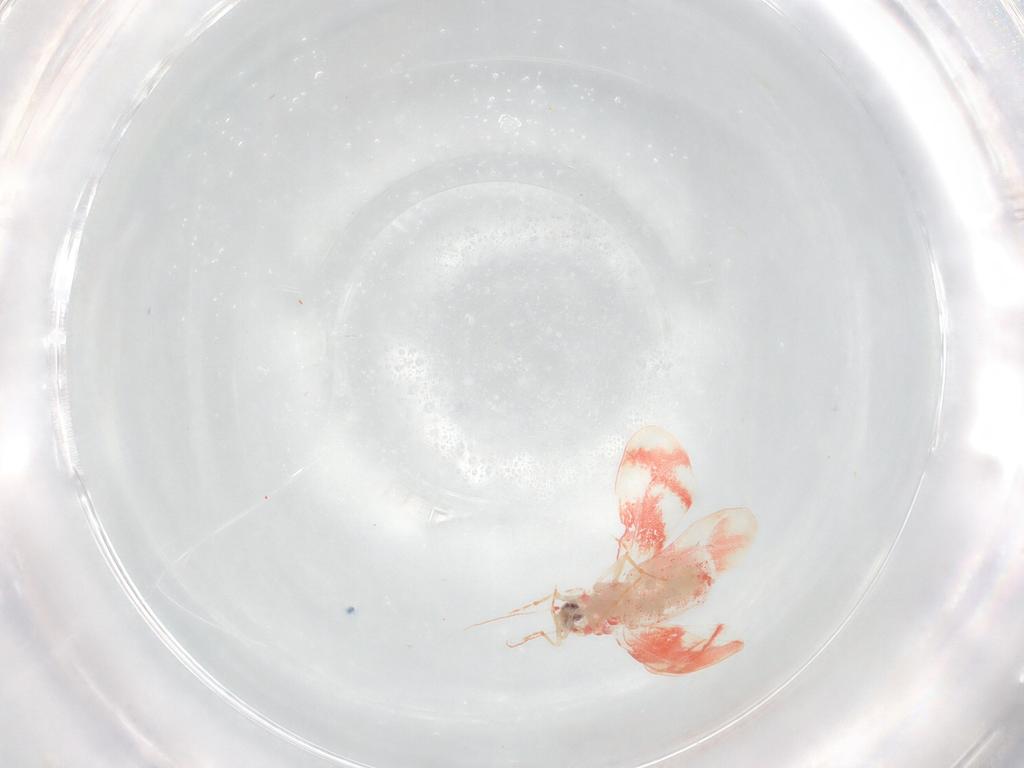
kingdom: Animalia
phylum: Arthropoda
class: Insecta
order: Hemiptera
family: Aleyrodidae
